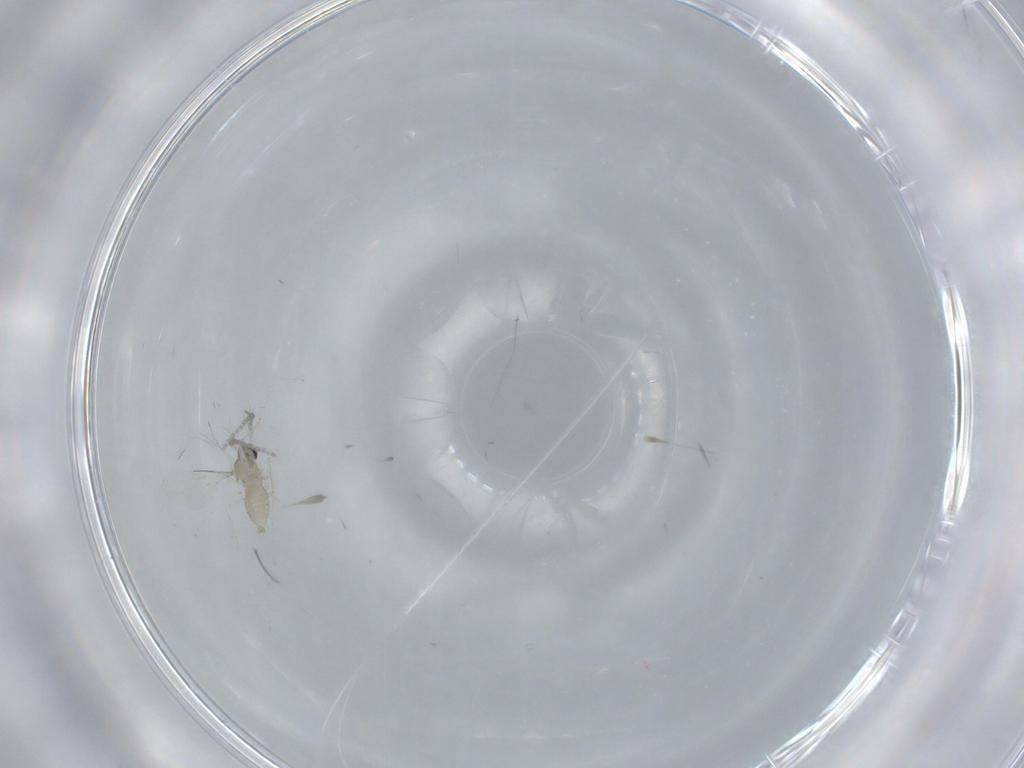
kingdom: Animalia
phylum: Arthropoda
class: Insecta
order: Diptera
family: Cecidomyiidae
